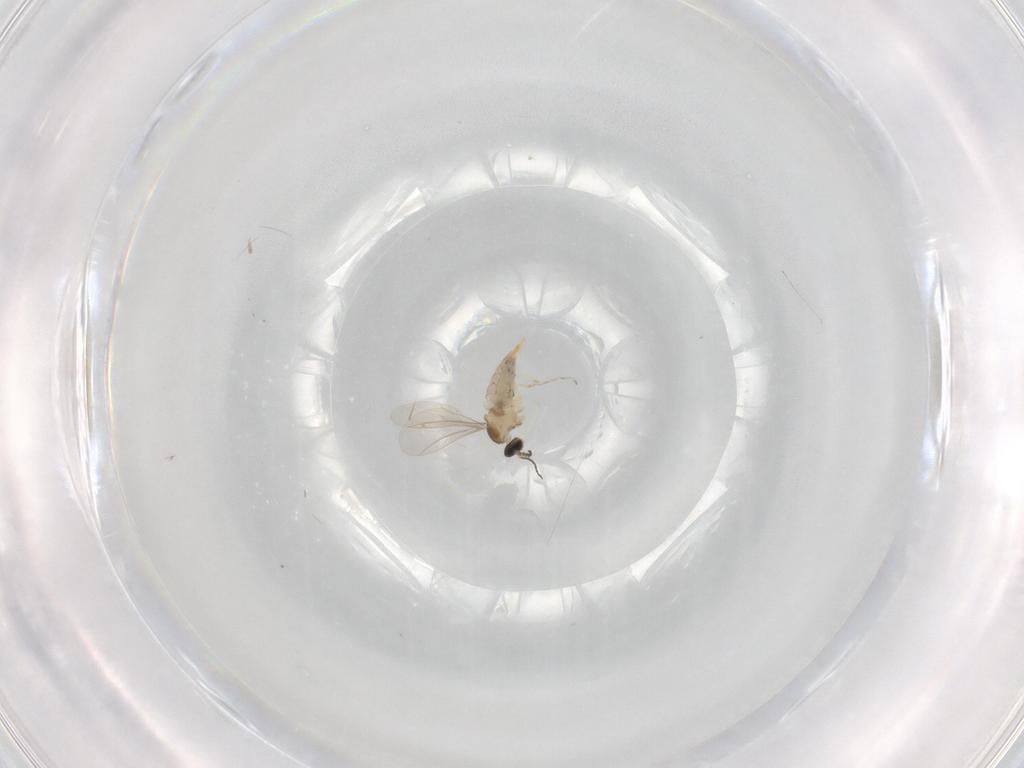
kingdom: Animalia
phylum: Arthropoda
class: Insecta
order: Diptera
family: Cecidomyiidae
